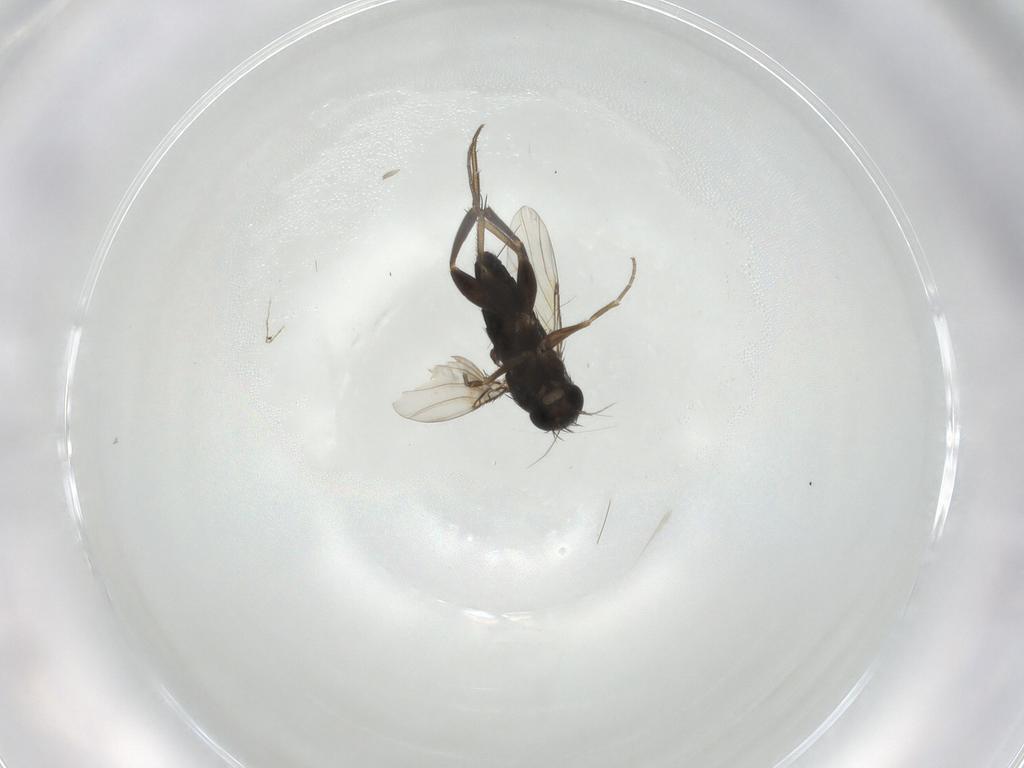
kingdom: Animalia
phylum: Arthropoda
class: Insecta
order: Diptera
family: Phoridae
